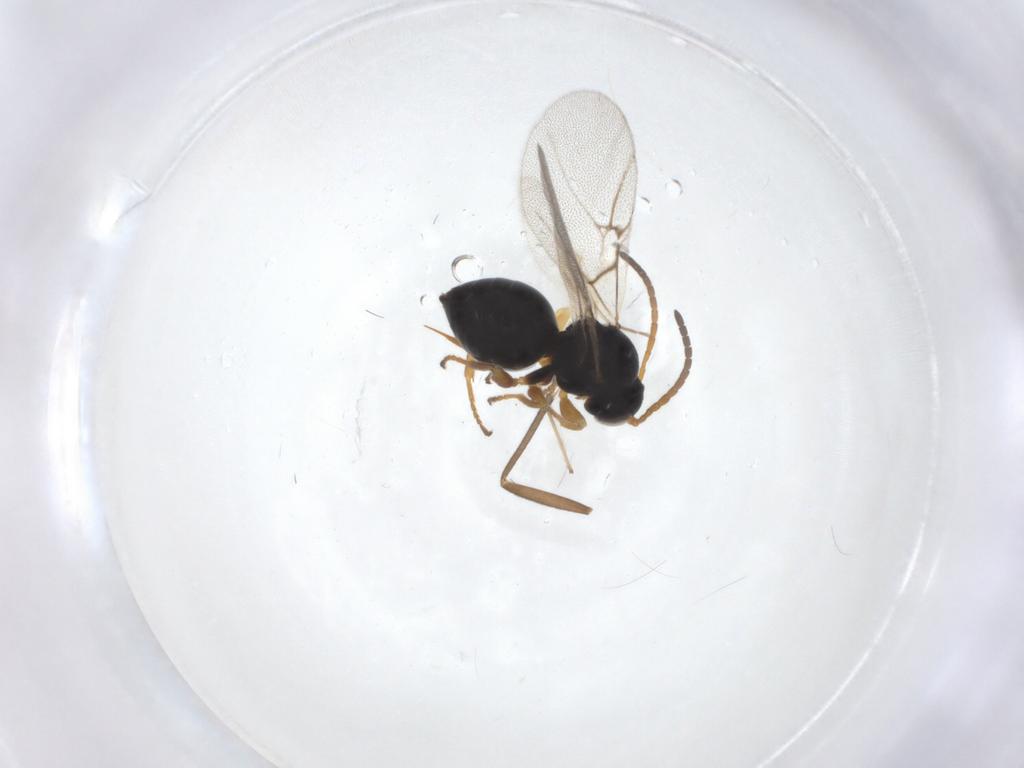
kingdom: Animalia
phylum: Arthropoda
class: Insecta
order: Hymenoptera
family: Cynipidae
